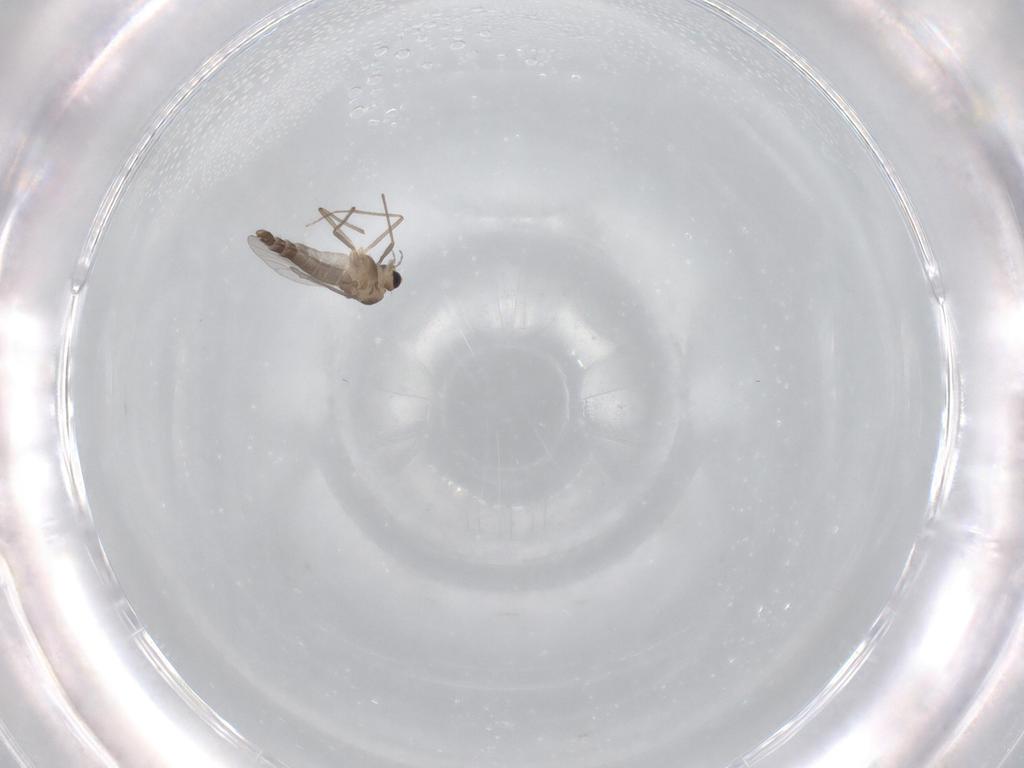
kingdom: Animalia
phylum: Arthropoda
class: Insecta
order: Diptera
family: Chironomidae
